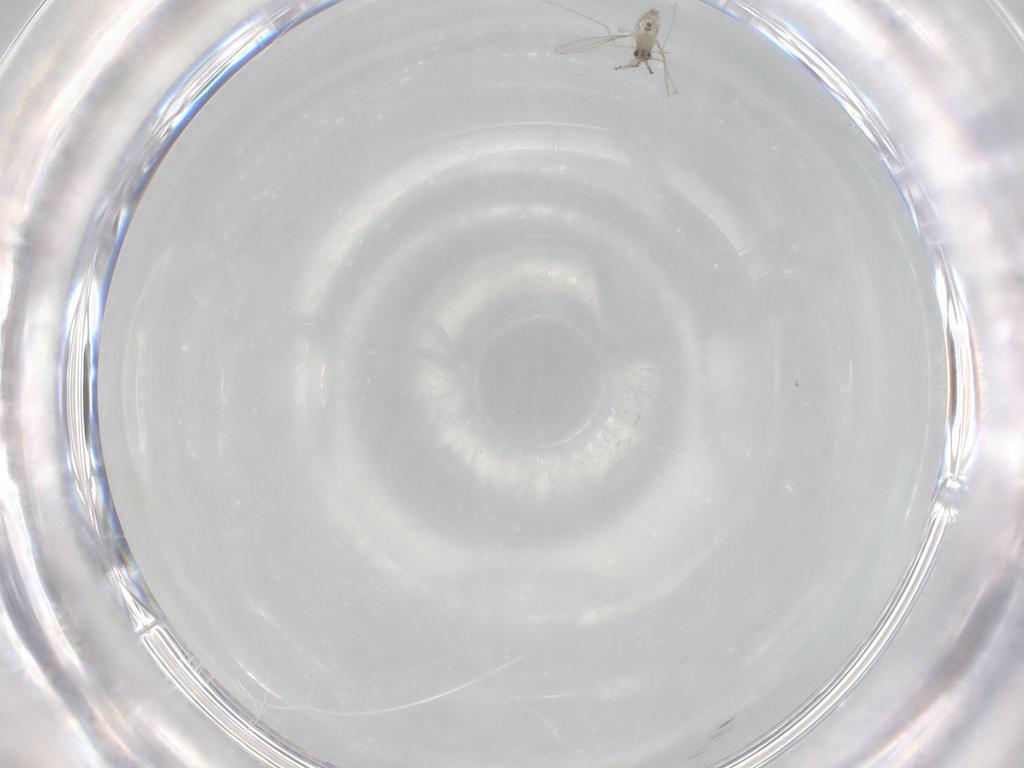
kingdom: Animalia
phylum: Arthropoda
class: Insecta
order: Diptera
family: Cecidomyiidae
